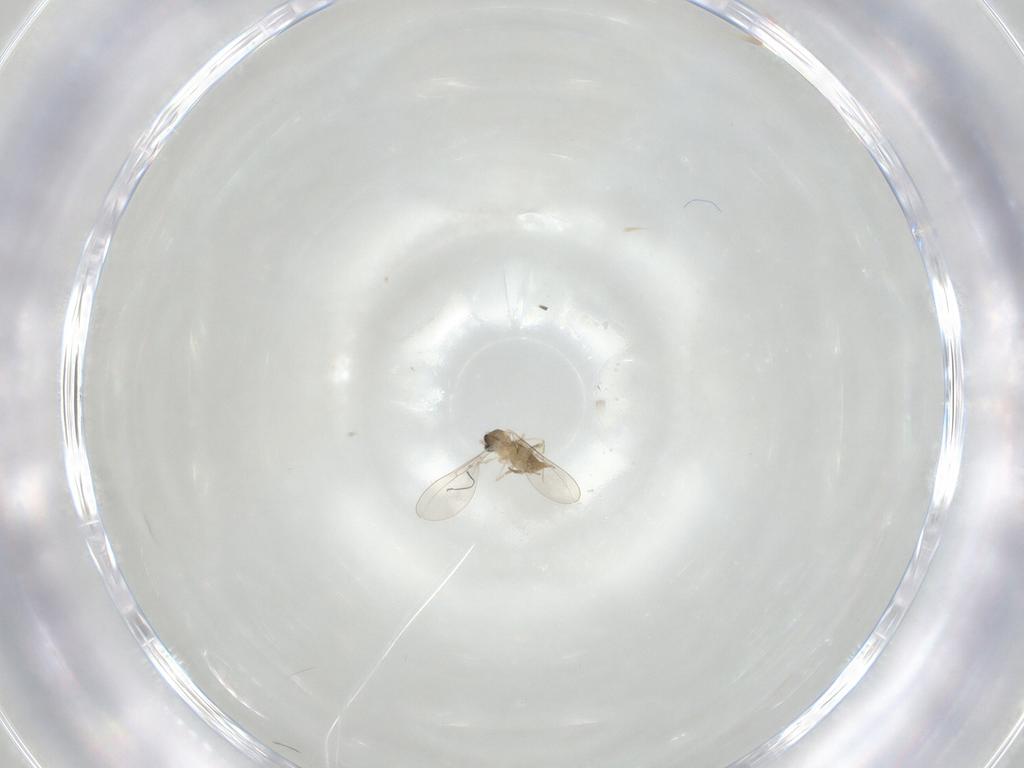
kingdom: Animalia
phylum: Arthropoda
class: Insecta
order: Diptera
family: Cecidomyiidae
